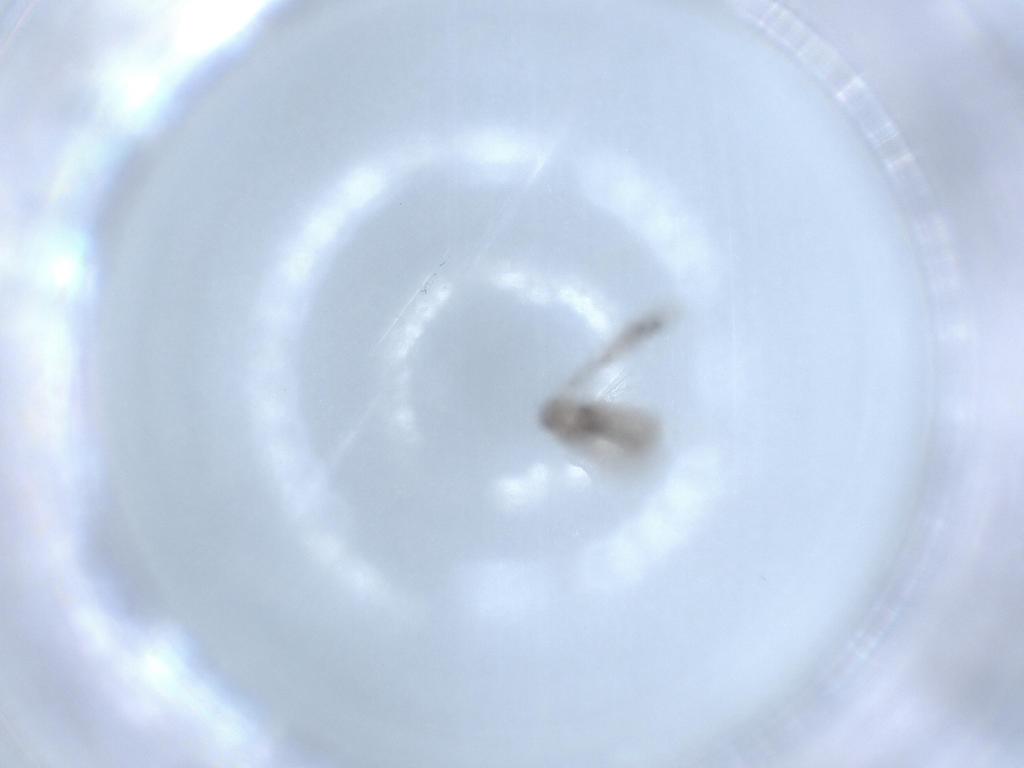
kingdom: Animalia
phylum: Arthropoda
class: Insecta
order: Diptera
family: Cecidomyiidae
